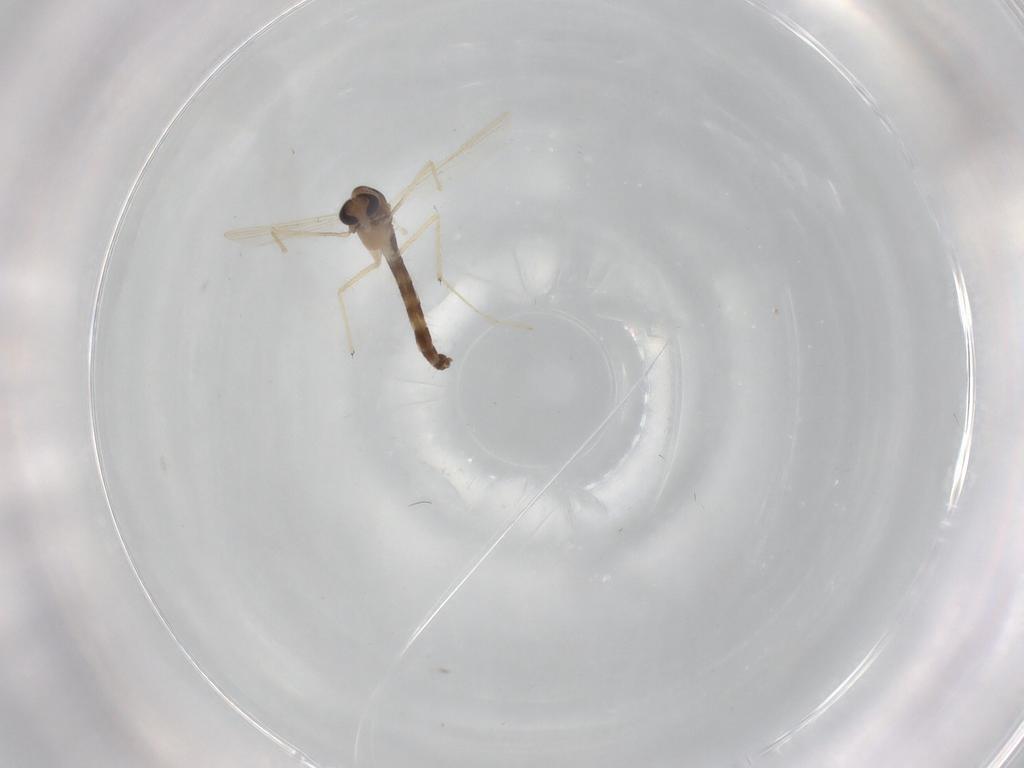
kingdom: Animalia
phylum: Arthropoda
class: Insecta
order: Diptera
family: Chironomidae
